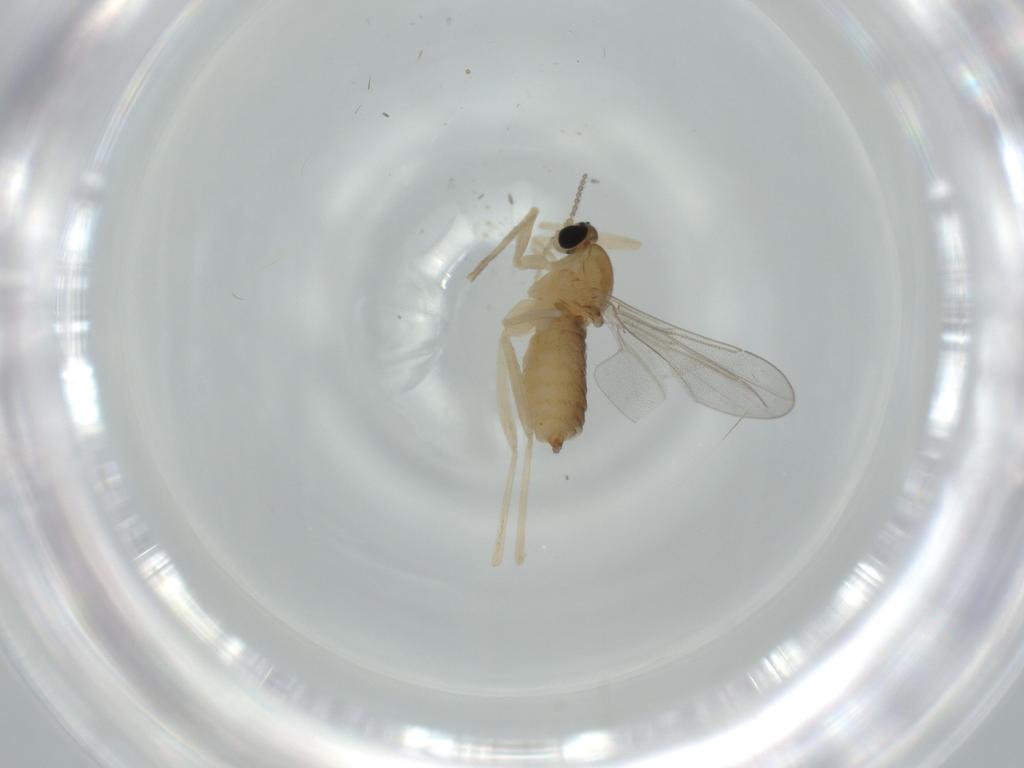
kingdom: Animalia
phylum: Arthropoda
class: Insecta
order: Diptera
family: Cecidomyiidae
